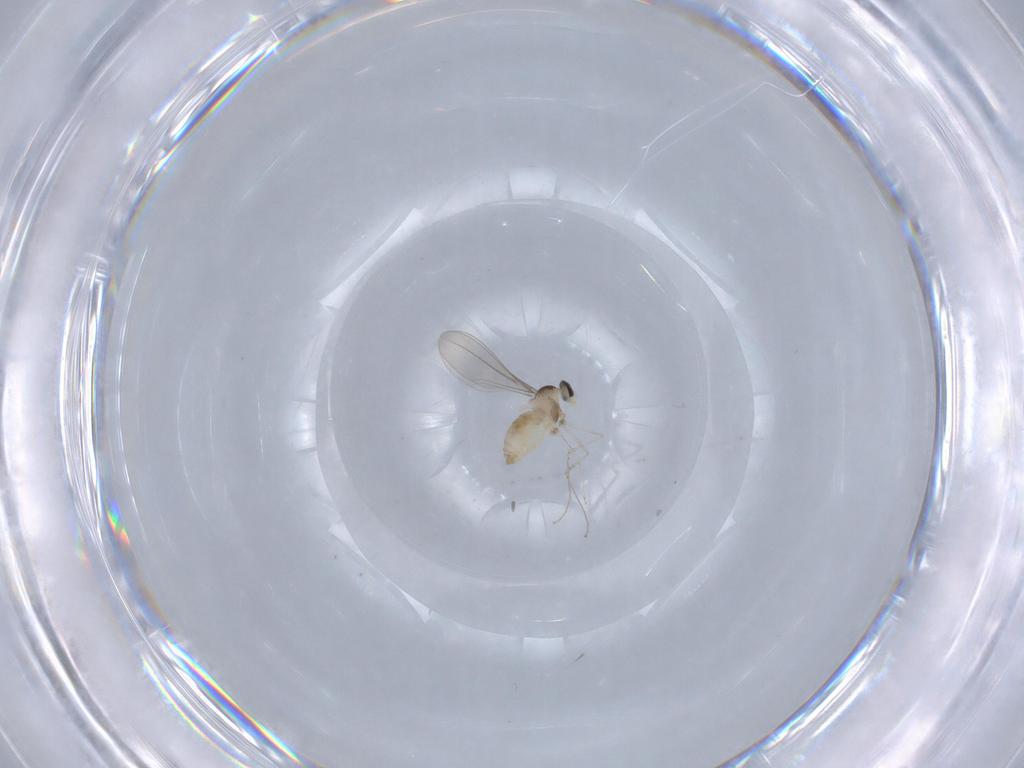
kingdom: Animalia
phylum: Arthropoda
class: Insecta
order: Diptera
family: Cecidomyiidae
